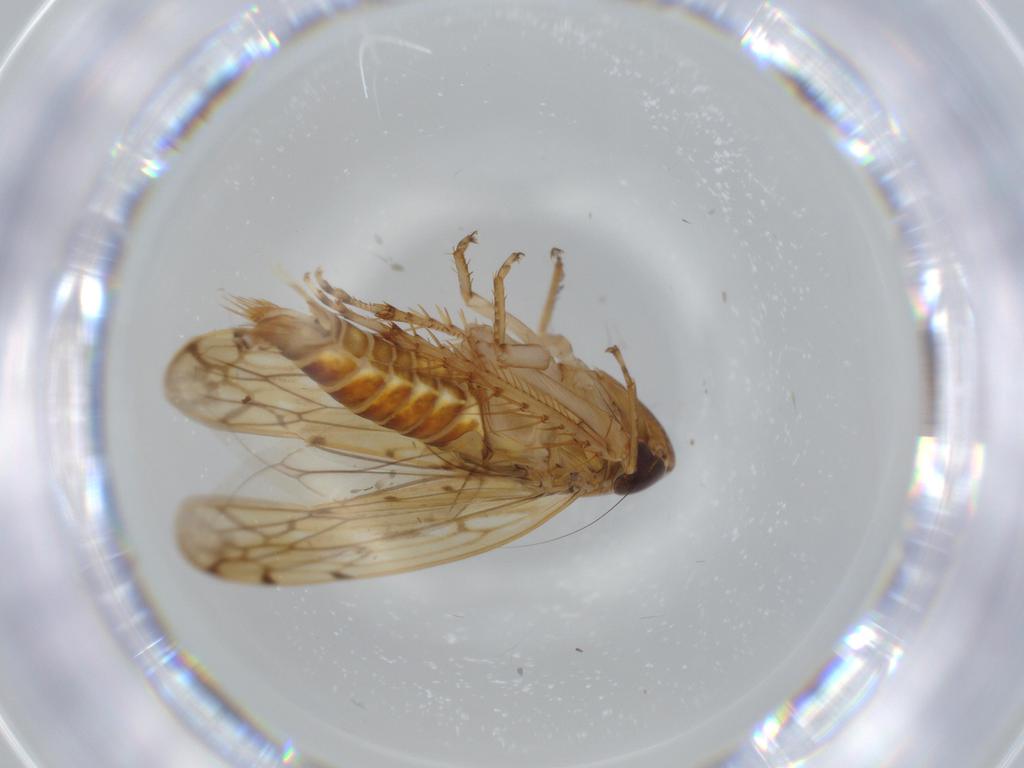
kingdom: Animalia
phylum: Arthropoda
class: Insecta
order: Hemiptera
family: Cicadellidae
